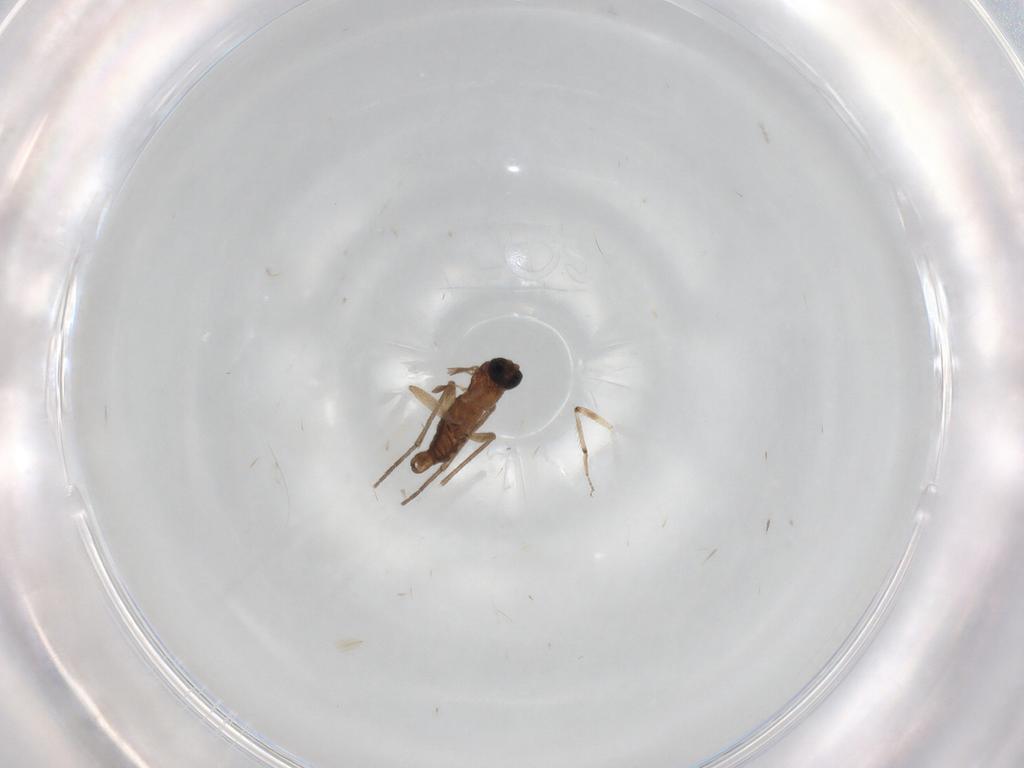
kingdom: Animalia
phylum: Arthropoda
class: Insecta
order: Diptera
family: Sciaridae
